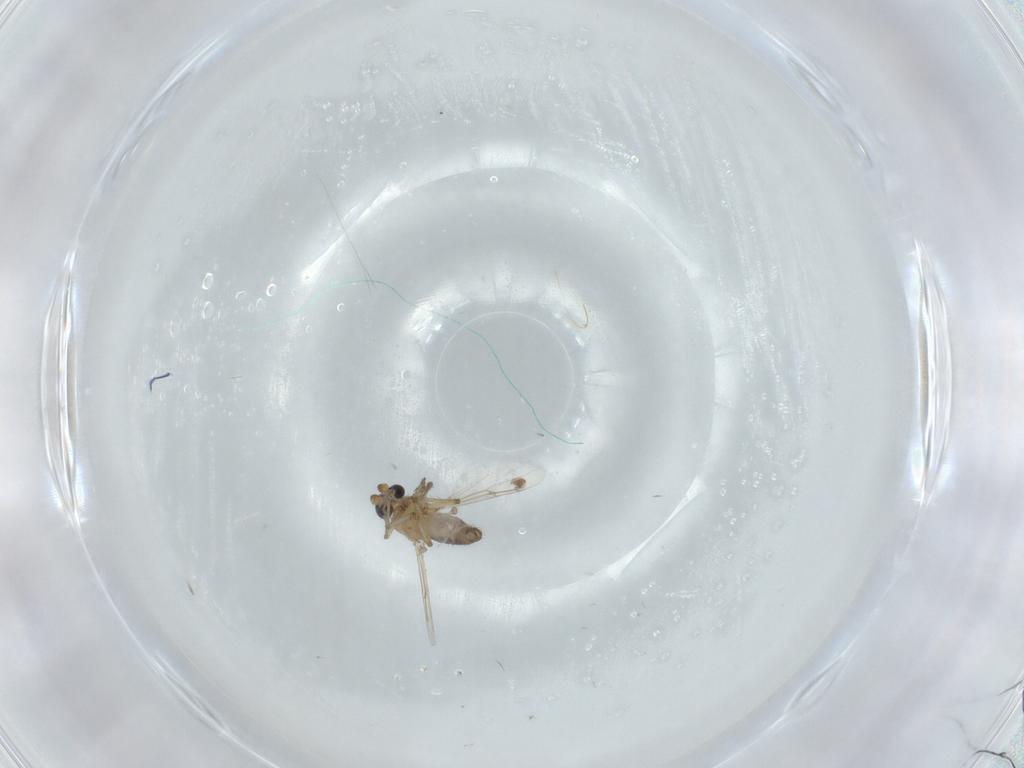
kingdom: Animalia
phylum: Arthropoda
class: Insecta
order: Diptera
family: Ceratopogonidae
